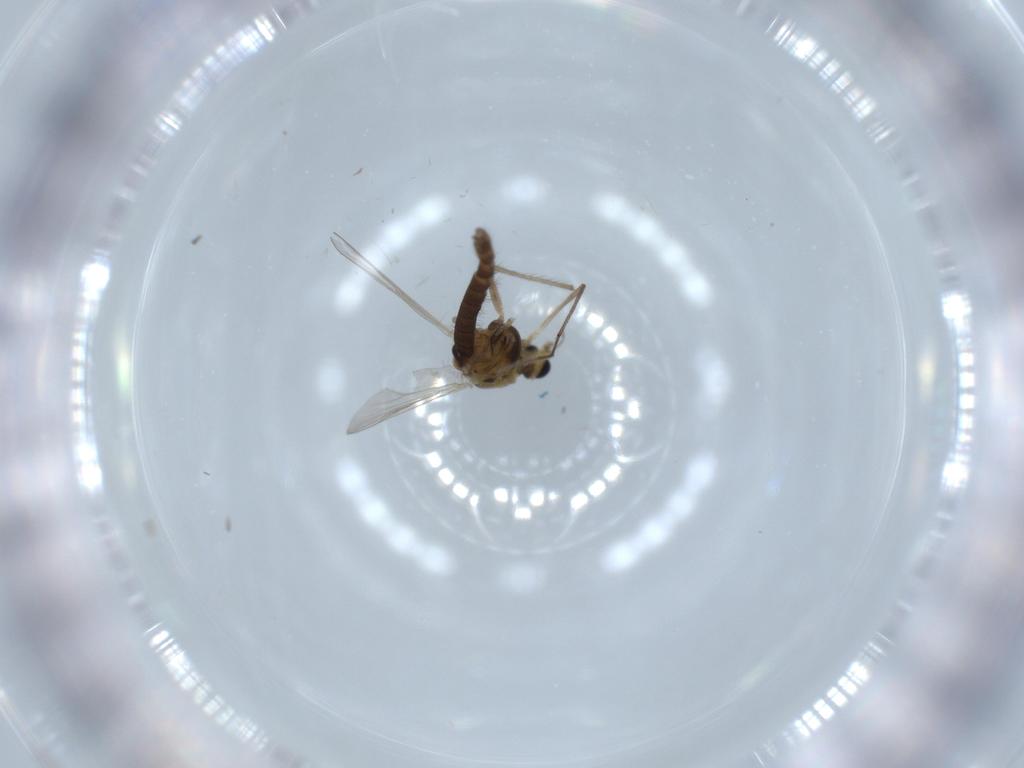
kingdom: Animalia
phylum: Arthropoda
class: Insecta
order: Diptera
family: Chironomidae
